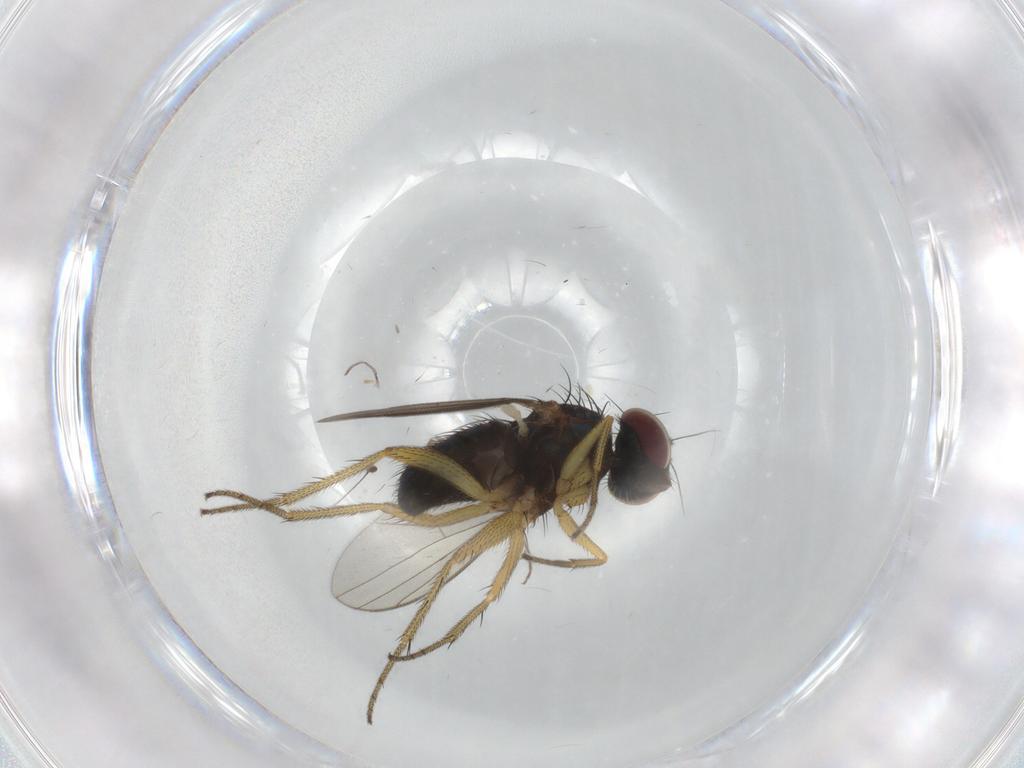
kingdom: Animalia
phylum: Arthropoda
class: Insecta
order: Diptera
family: Chironomidae
